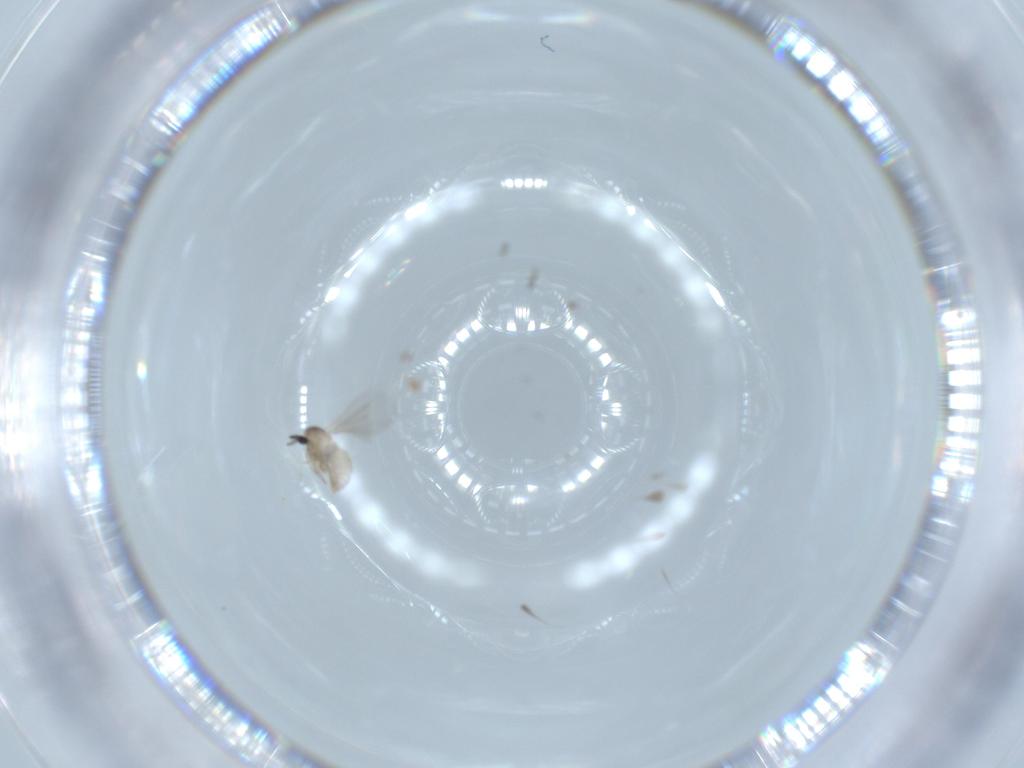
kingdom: Animalia
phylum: Arthropoda
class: Insecta
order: Diptera
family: Cecidomyiidae
